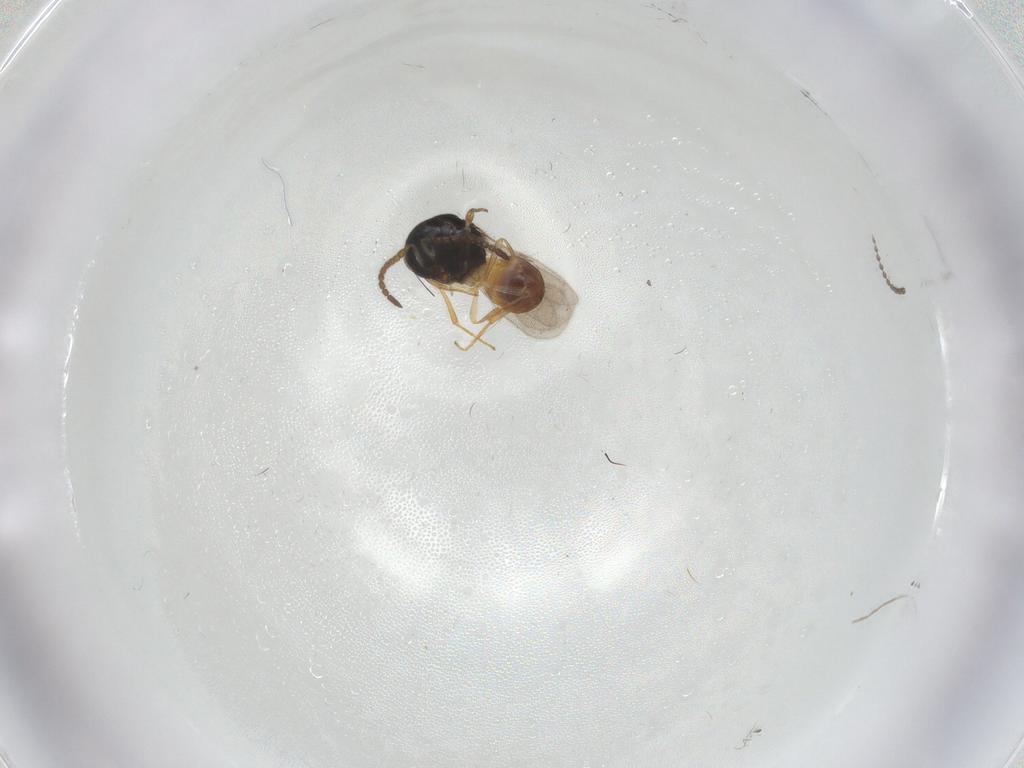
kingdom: Animalia
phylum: Arthropoda
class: Insecta
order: Hymenoptera
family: Scelionidae
